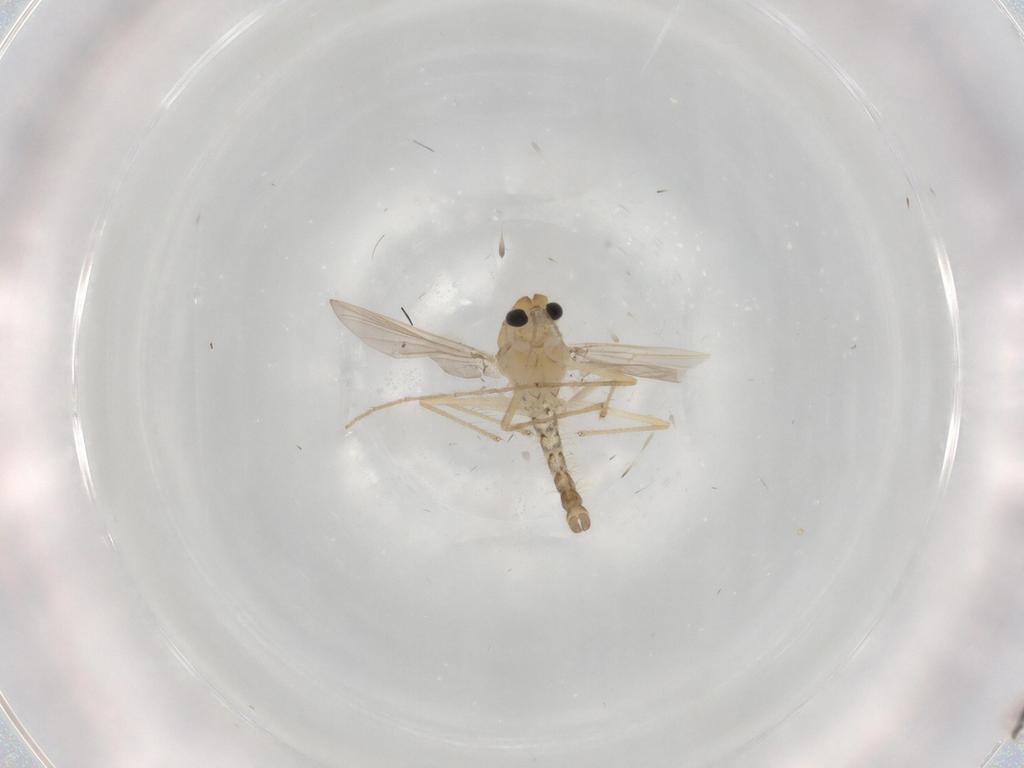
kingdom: Animalia
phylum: Arthropoda
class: Insecta
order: Diptera
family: Chironomidae
